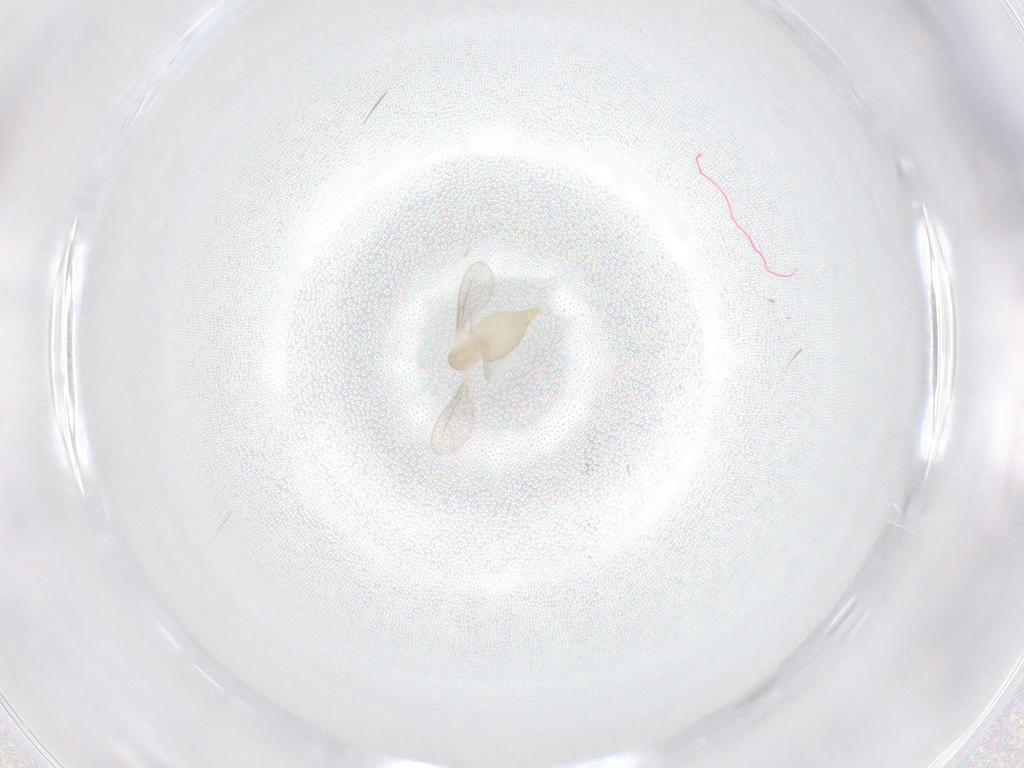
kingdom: Animalia
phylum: Arthropoda
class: Insecta
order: Diptera
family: Cecidomyiidae
